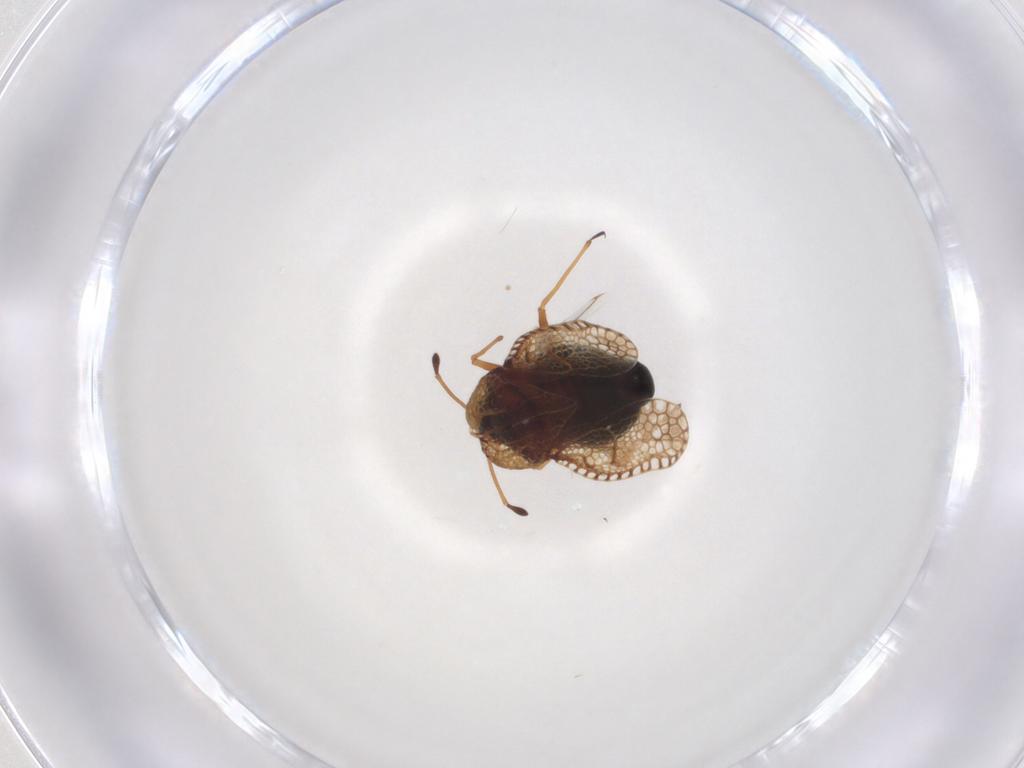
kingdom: Animalia
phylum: Arthropoda
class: Insecta
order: Hemiptera
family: Tingidae
